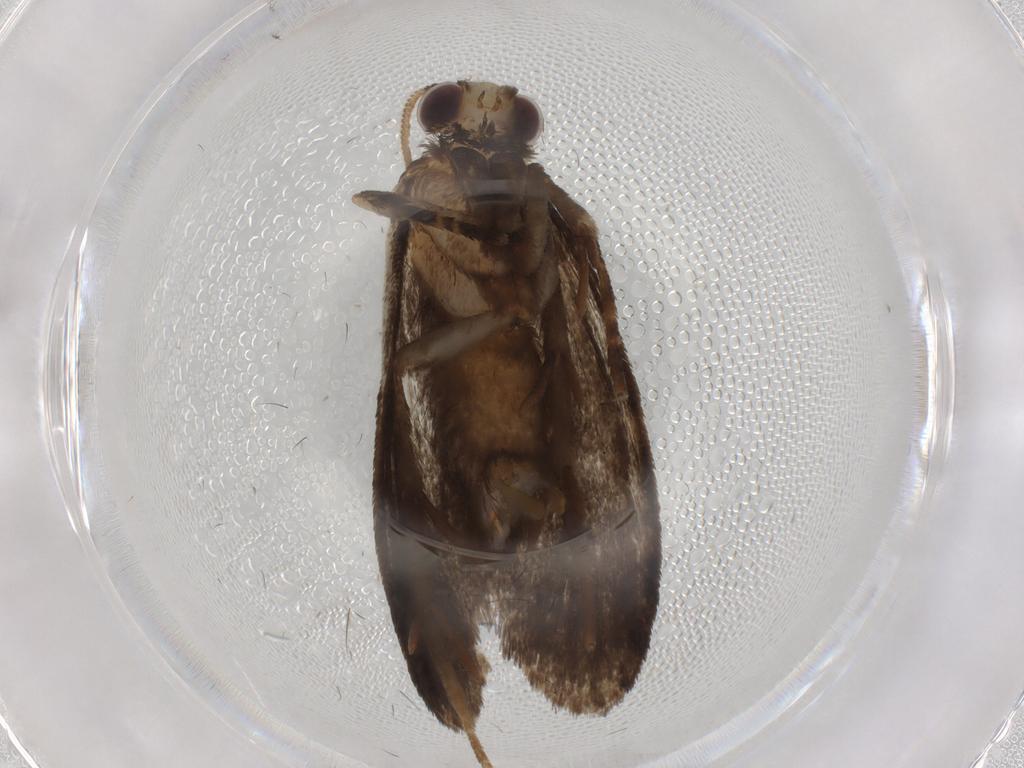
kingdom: Animalia
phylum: Arthropoda
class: Insecta
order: Lepidoptera
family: Tineidae
